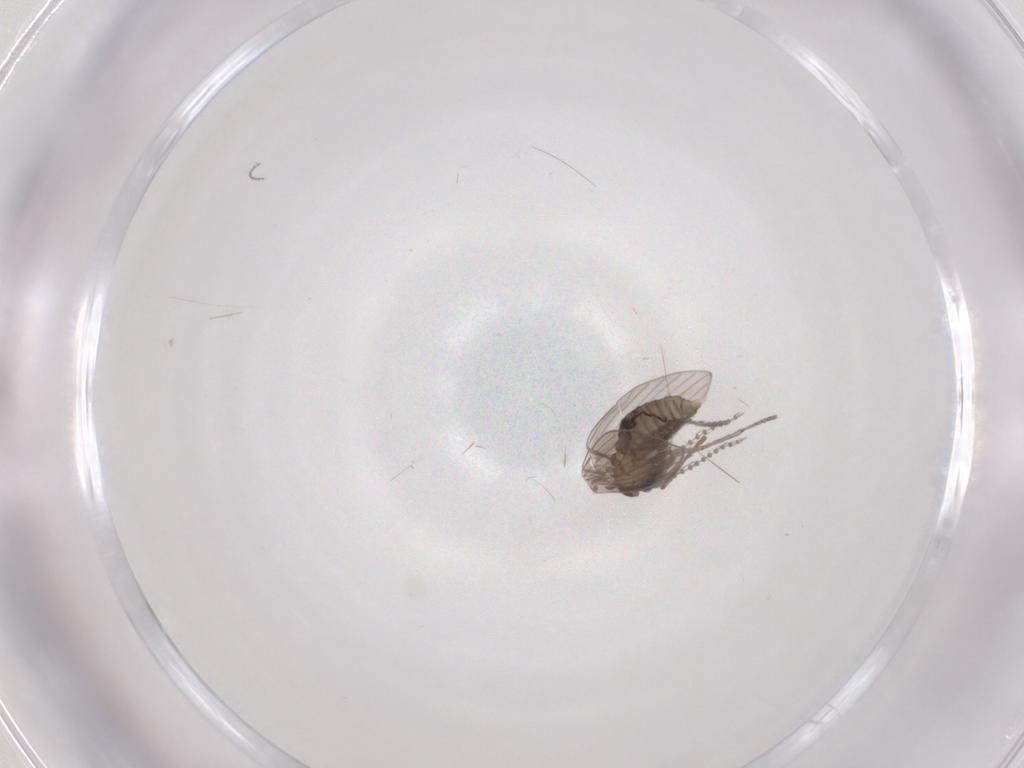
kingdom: Animalia
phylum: Arthropoda
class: Insecta
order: Diptera
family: Psychodidae
